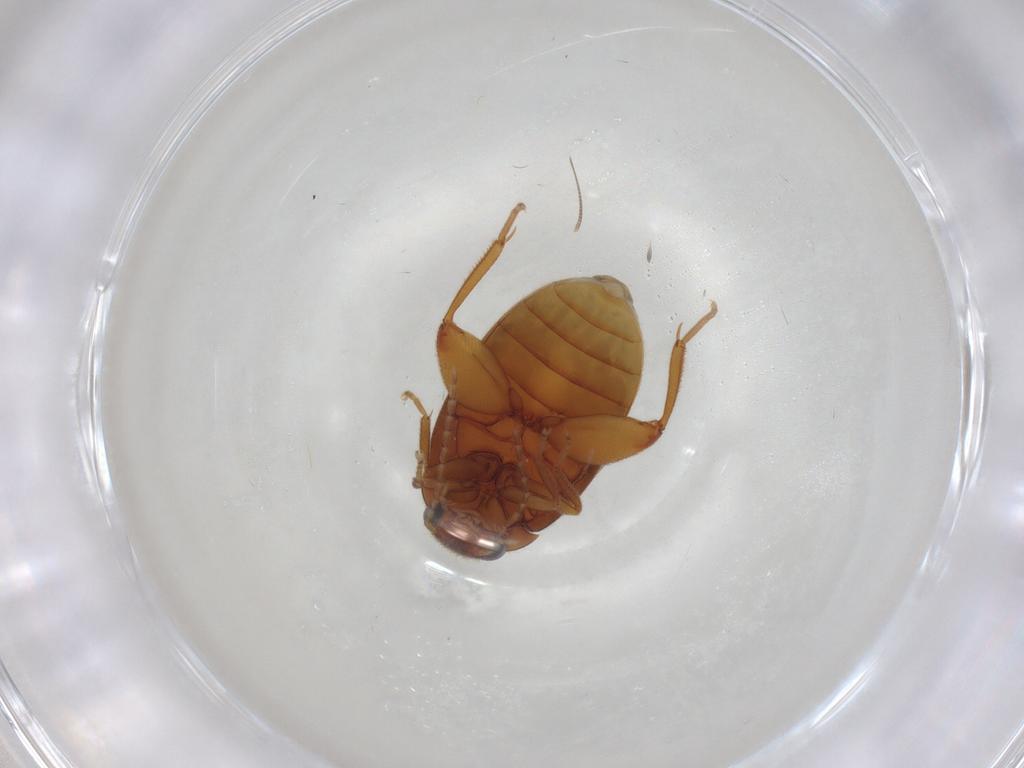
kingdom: Animalia
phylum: Arthropoda
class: Insecta
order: Coleoptera
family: Scirtidae
